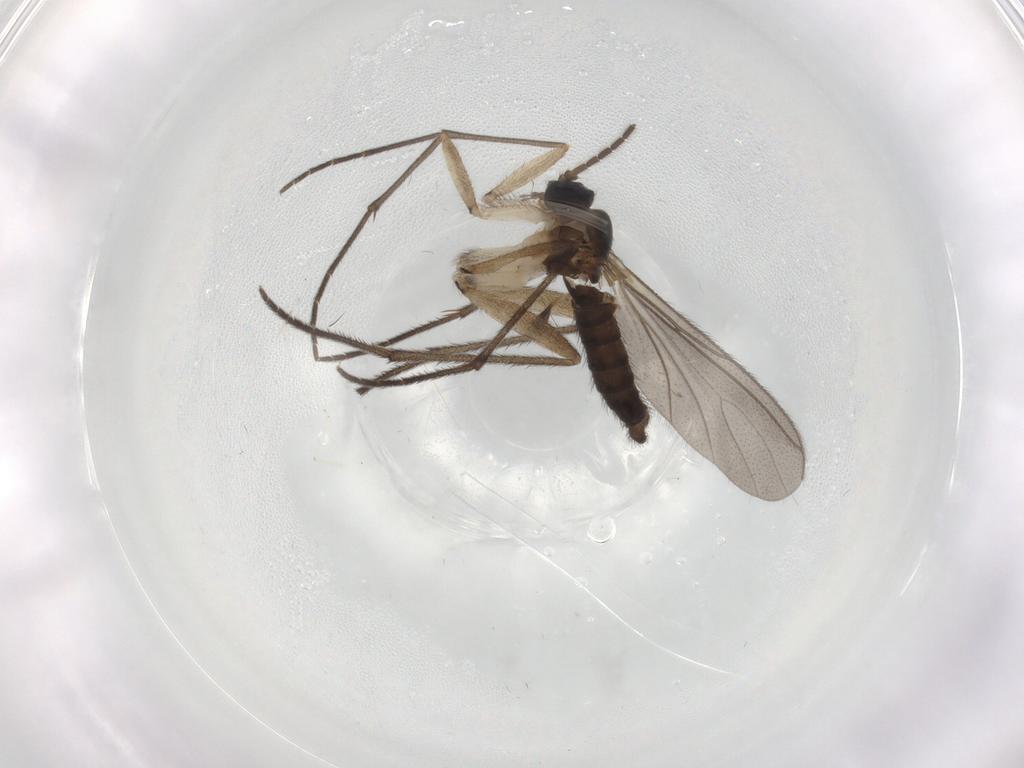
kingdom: Animalia
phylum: Arthropoda
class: Insecta
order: Diptera
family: Sciaridae
